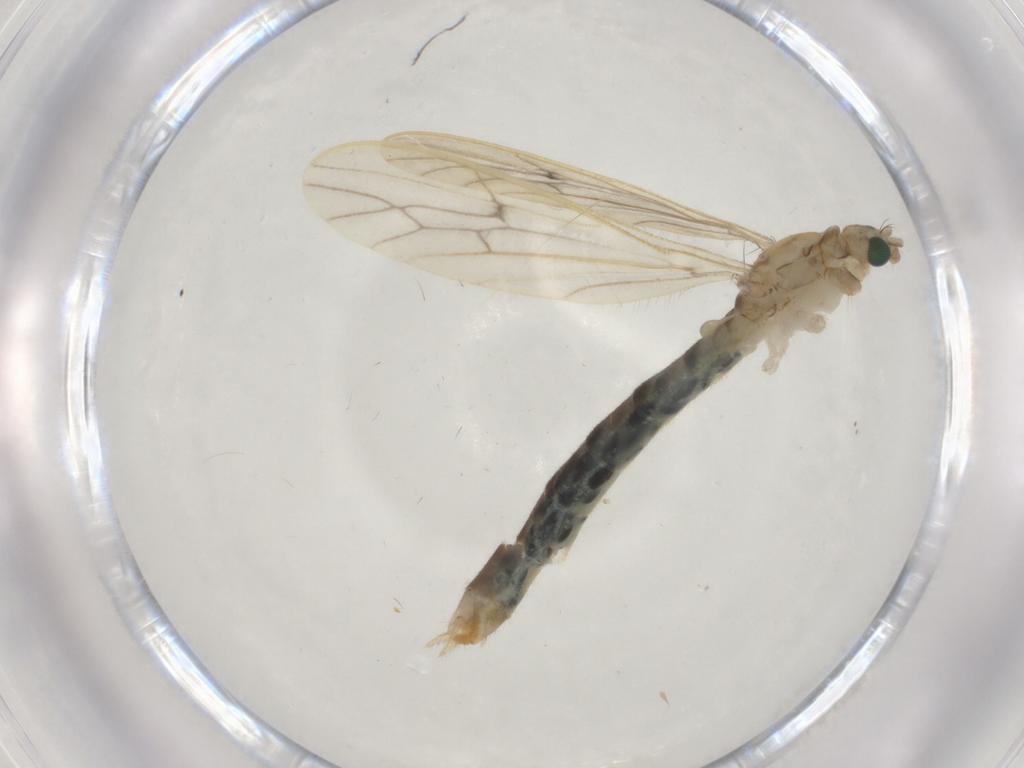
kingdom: Animalia
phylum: Arthropoda
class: Insecta
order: Diptera
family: Limoniidae
